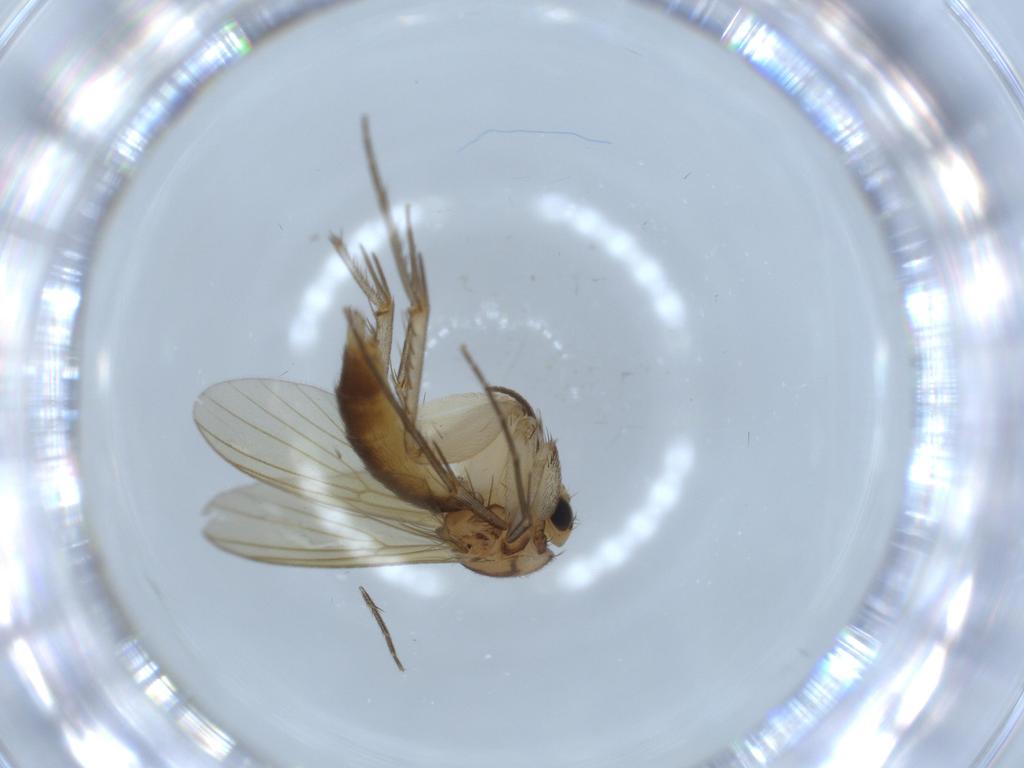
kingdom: Animalia
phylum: Arthropoda
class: Insecta
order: Diptera
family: Mycetophilidae
